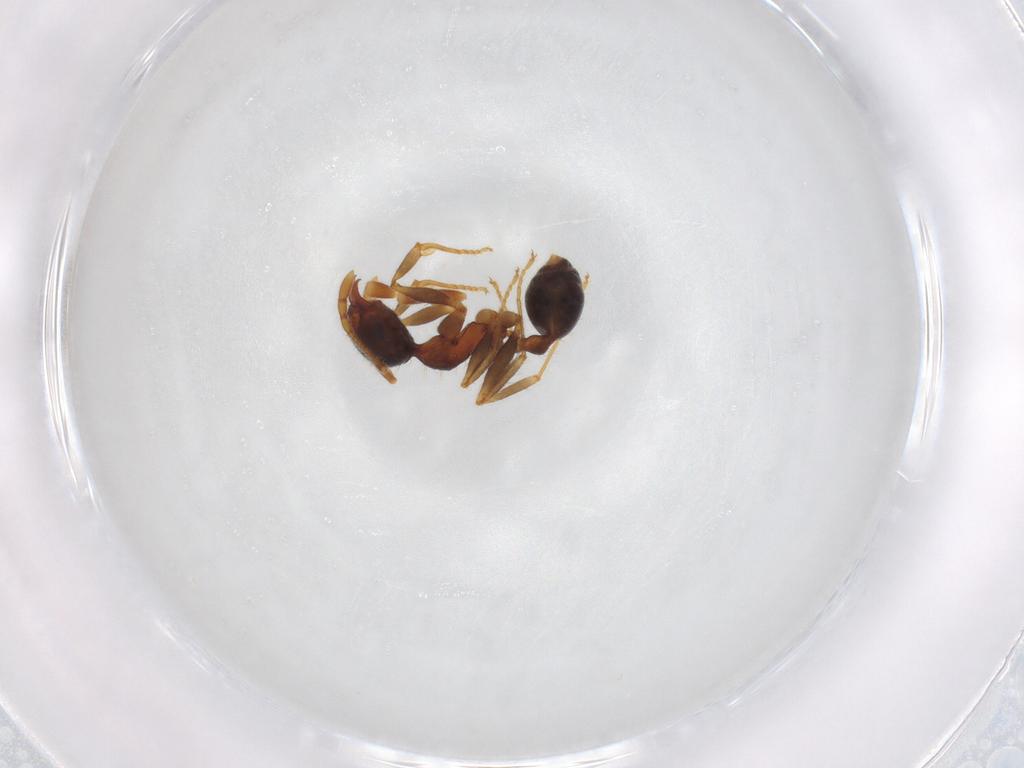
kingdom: Animalia
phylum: Arthropoda
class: Insecta
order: Hymenoptera
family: Formicidae
